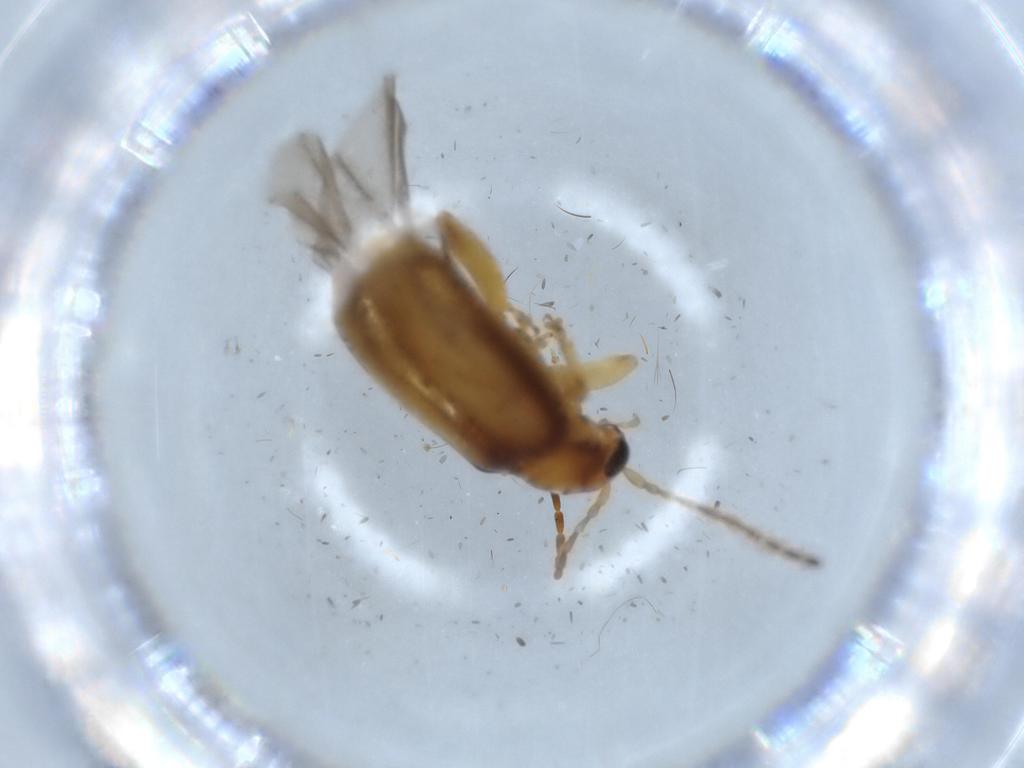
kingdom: Animalia
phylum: Arthropoda
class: Insecta
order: Coleoptera
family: Chrysomelidae
